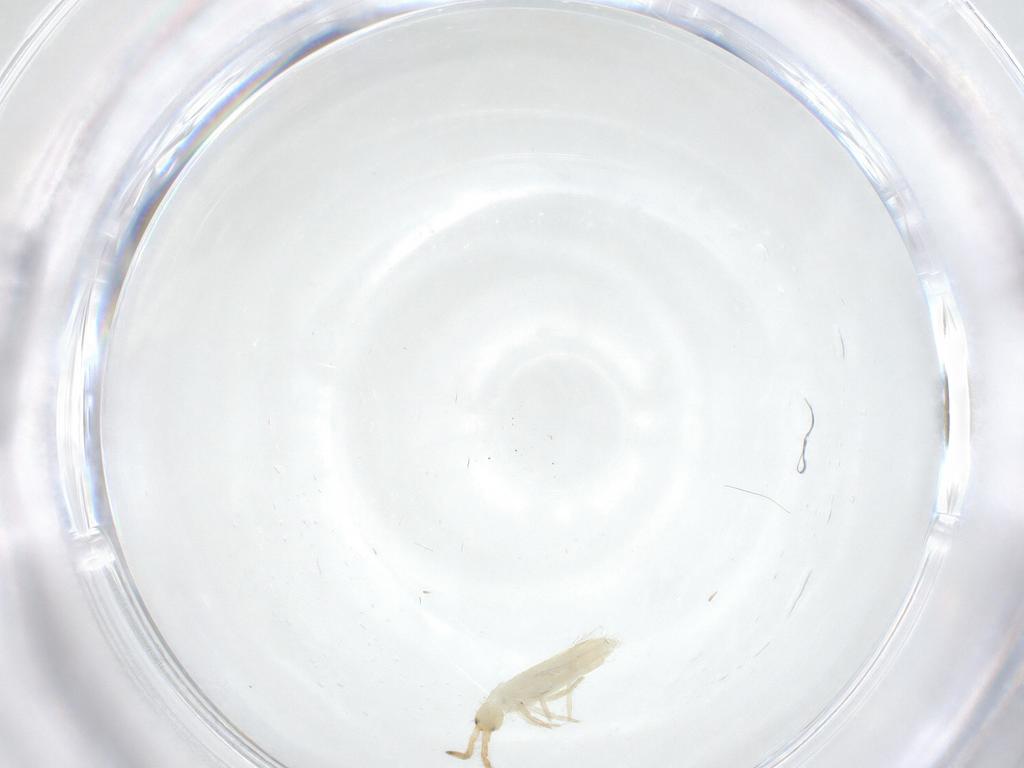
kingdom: Animalia
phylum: Arthropoda
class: Collembola
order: Entomobryomorpha
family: Entomobryidae
